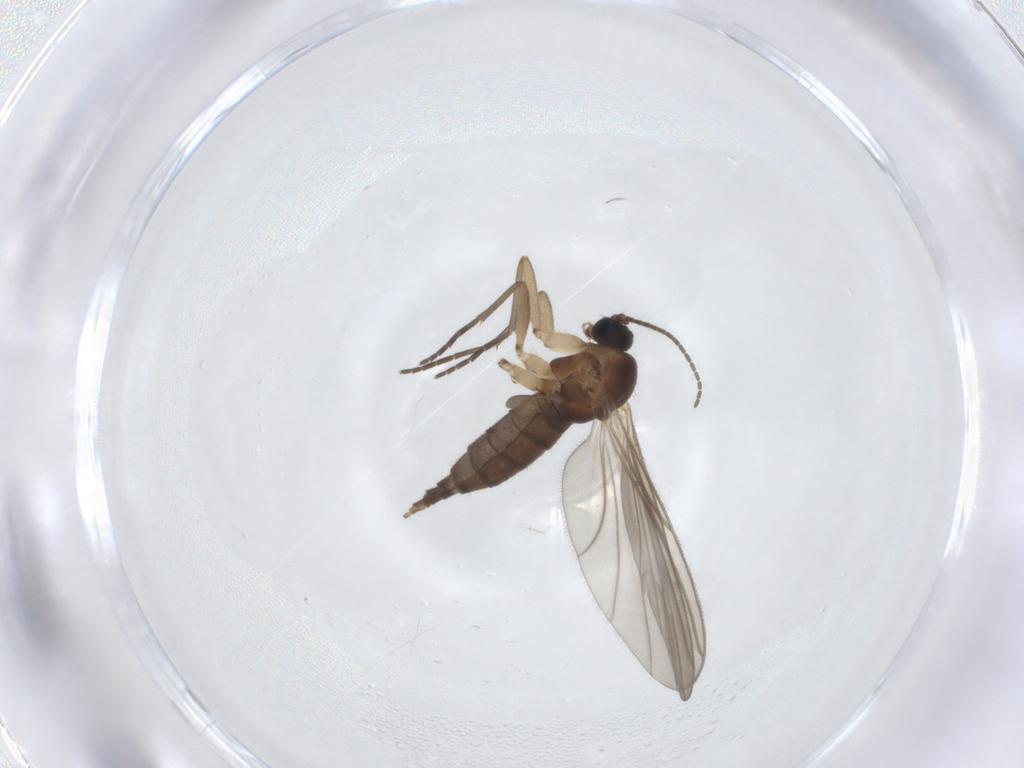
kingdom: Animalia
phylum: Arthropoda
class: Insecta
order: Diptera
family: Sciaridae
